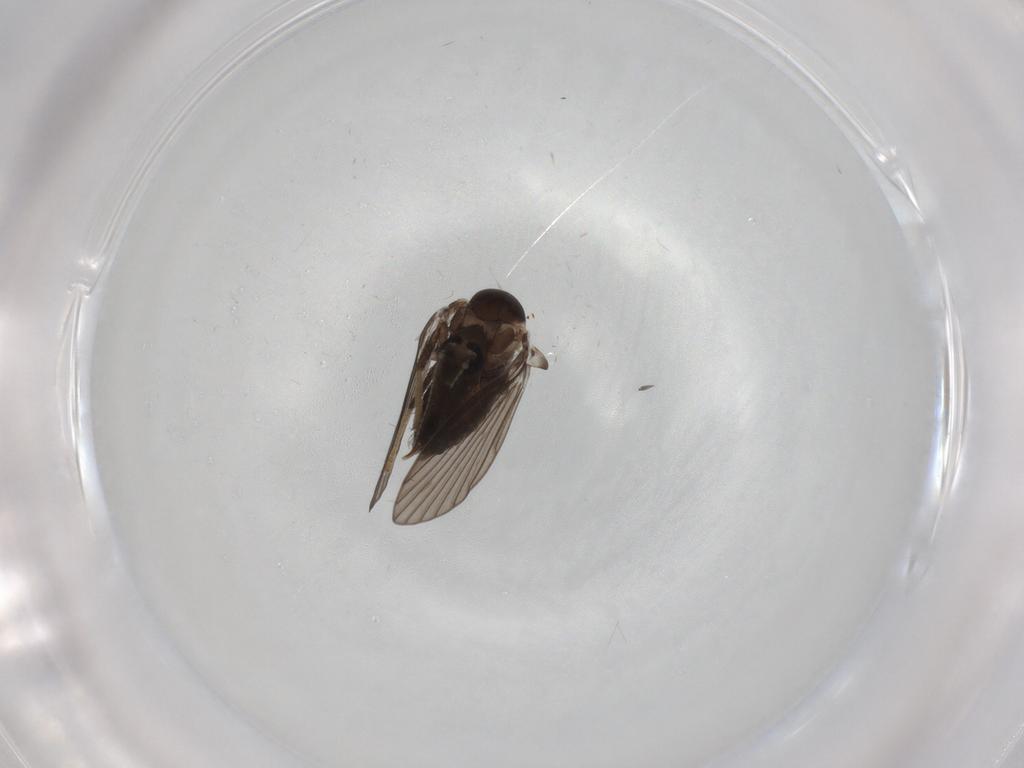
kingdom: Animalia
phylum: Arthropoda
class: Insecta
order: Diptera
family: Psychodidae
